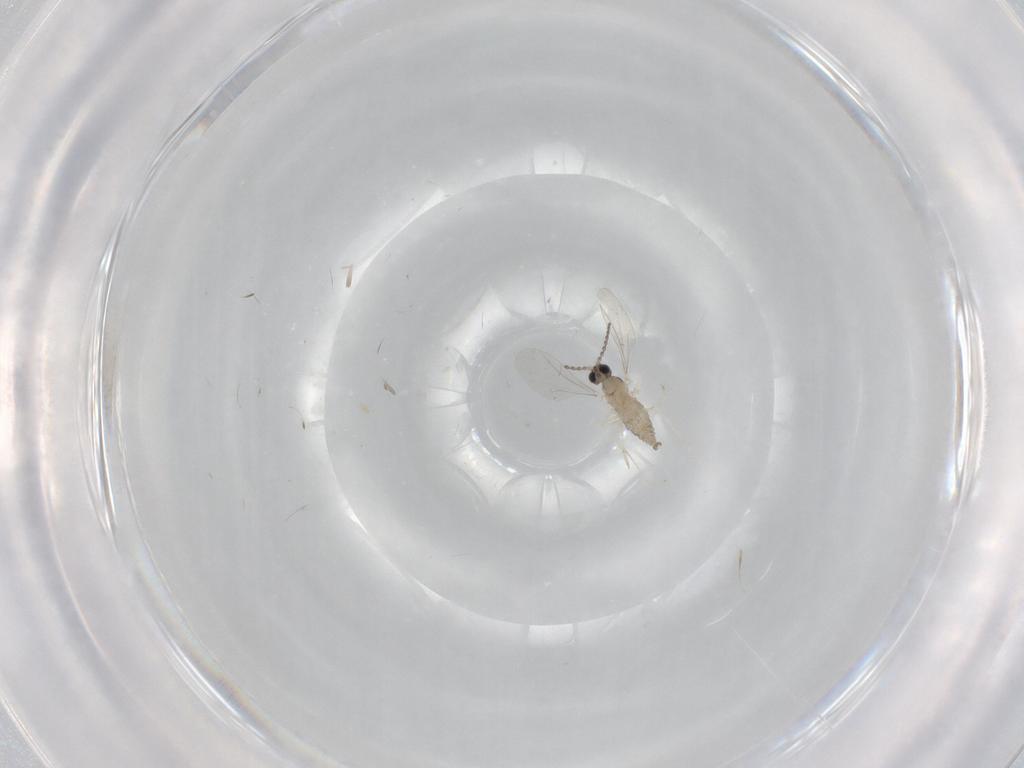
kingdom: Animalia
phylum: Arthropoda
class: Insecta
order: Diptera
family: Cecidomyiidae
